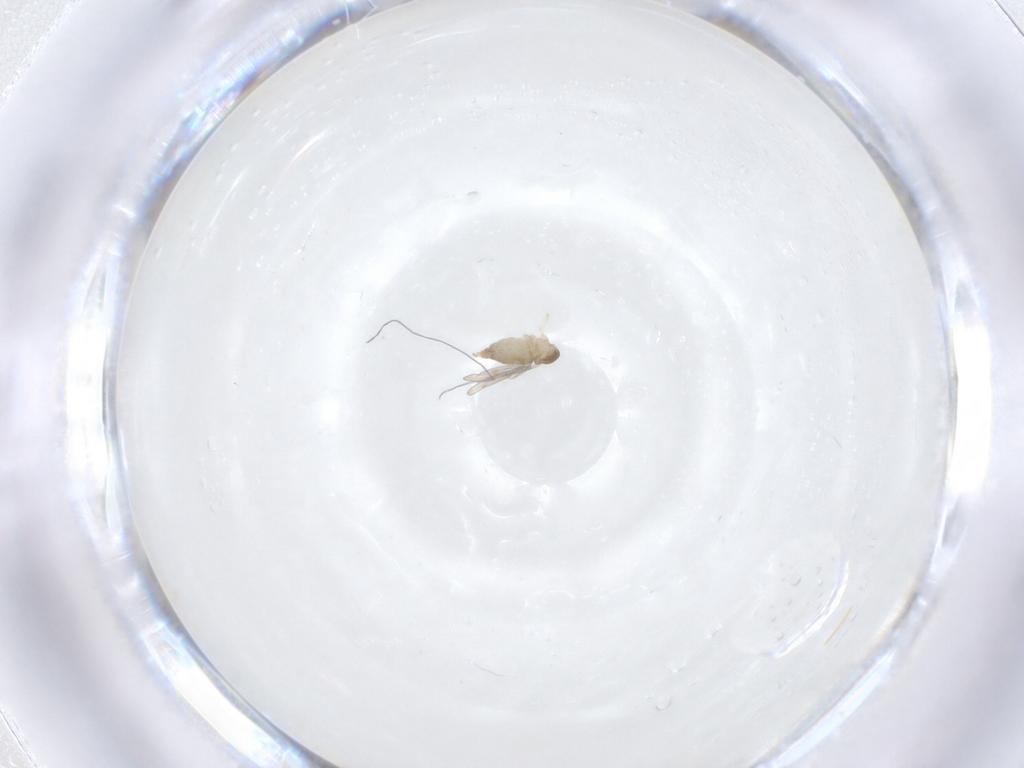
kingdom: Animalia
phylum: Arthropoda
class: Insecta
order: Diptera
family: Cecidomyiidae
